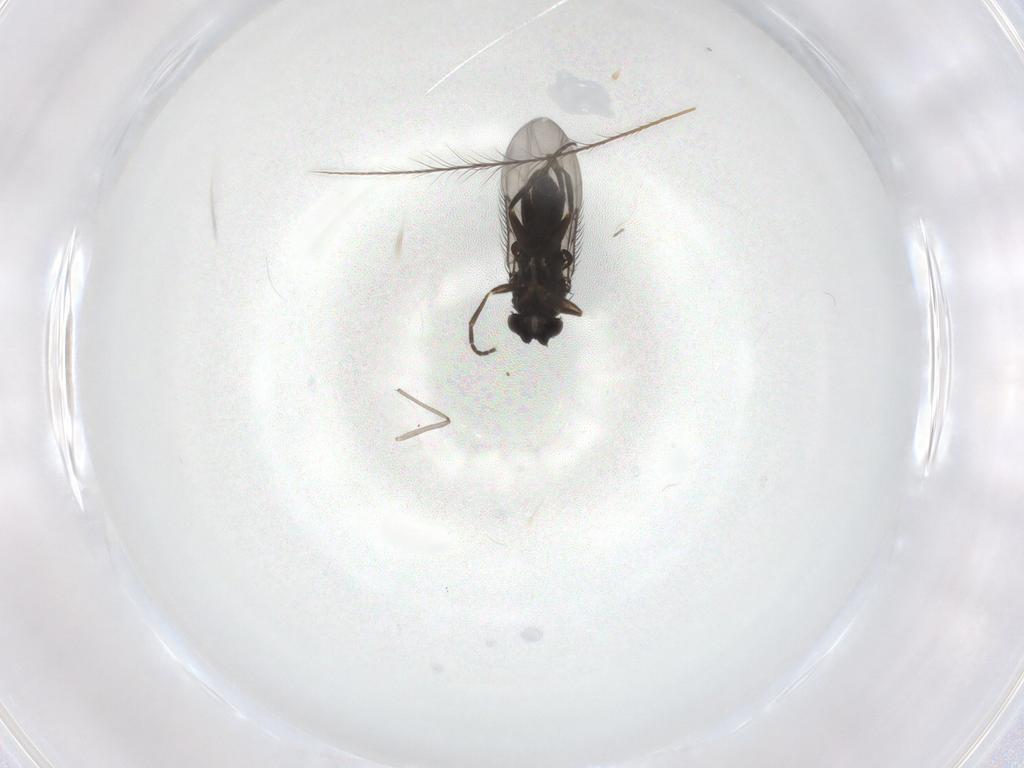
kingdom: Animalia
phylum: Arthropoda
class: Insecta
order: Diptera
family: Phoridae
